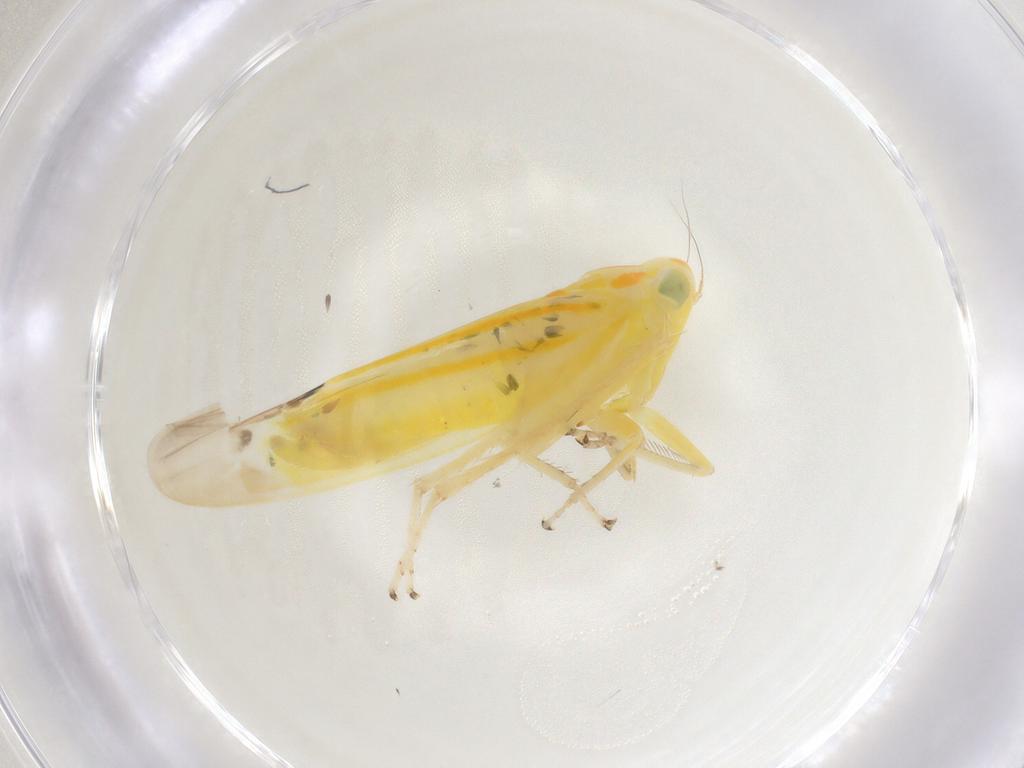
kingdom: Animalia
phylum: Arthropoda
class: Insecta
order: Hemiptera
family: Cicadellidae
